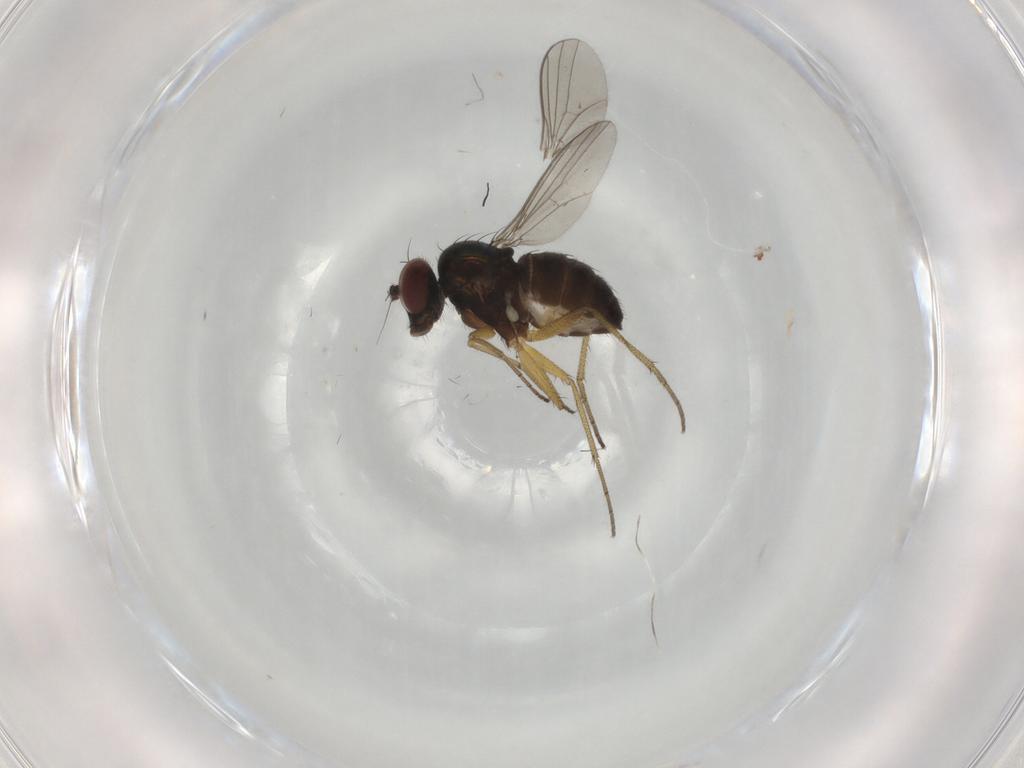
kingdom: Animalia
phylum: Arthropoda
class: Insecta
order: Diptera
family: Dolichopodidae
